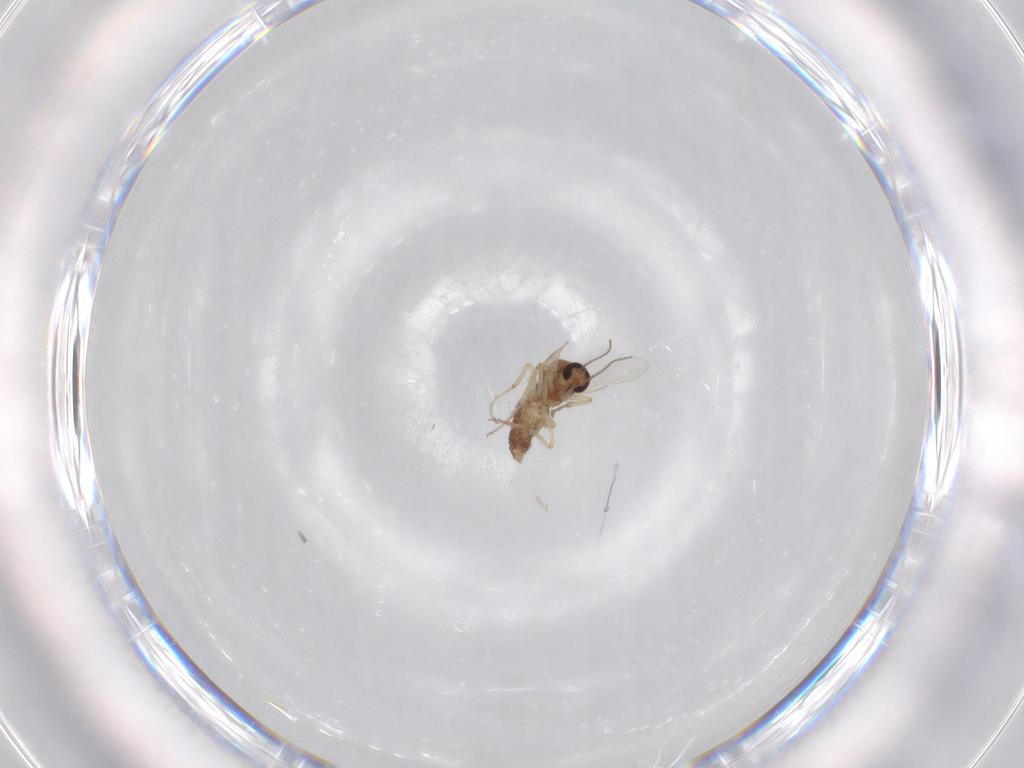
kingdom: Animalia
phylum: Arthropoda
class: Insecta
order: Diptera
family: Ceratopogonidae
